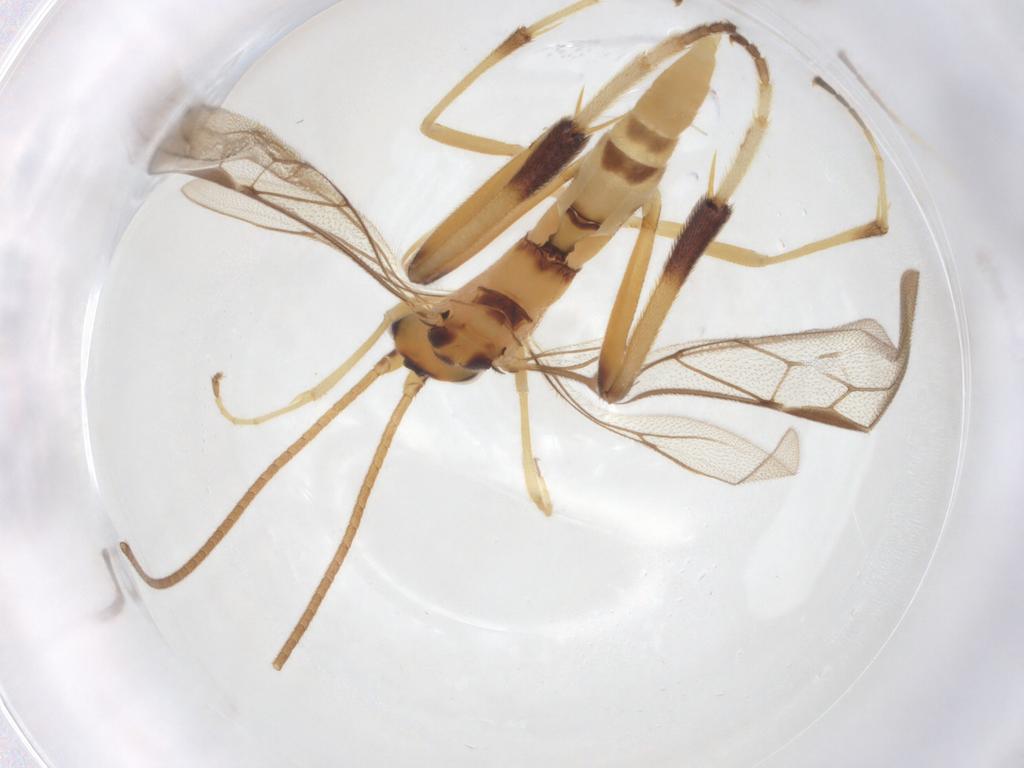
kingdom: Animalia
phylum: Arthropoda
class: Insecta
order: Hymenoptera
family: Braconidae
